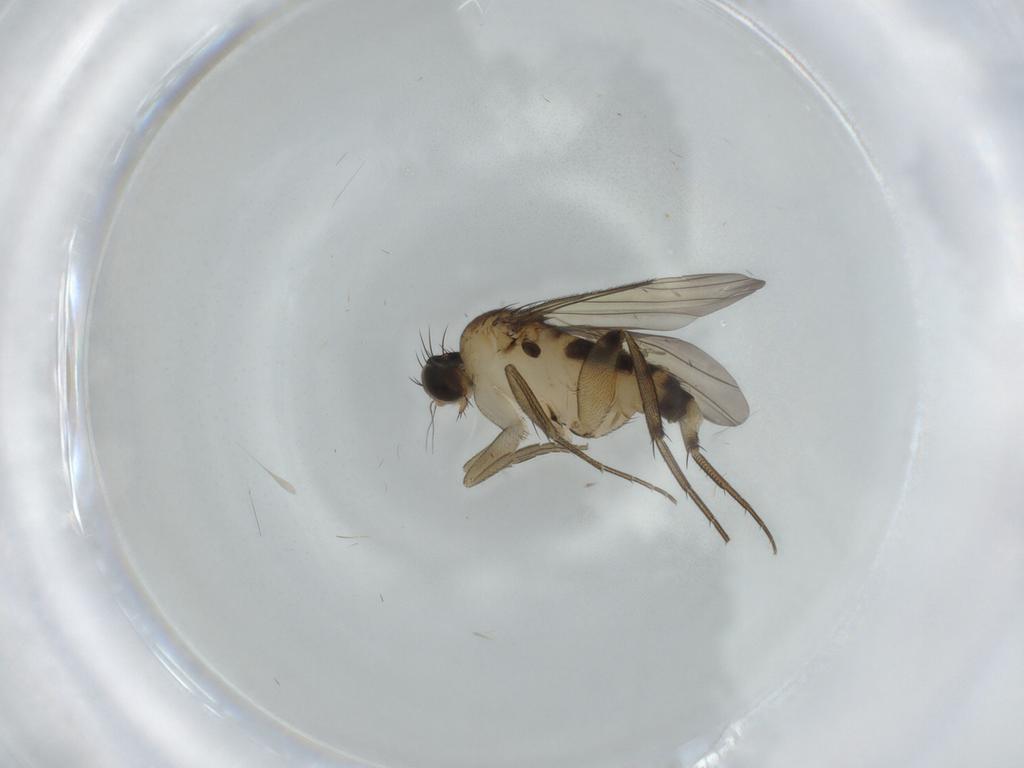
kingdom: Animalia
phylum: Arthropoda
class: Insecta
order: Diptera
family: Phoridae
